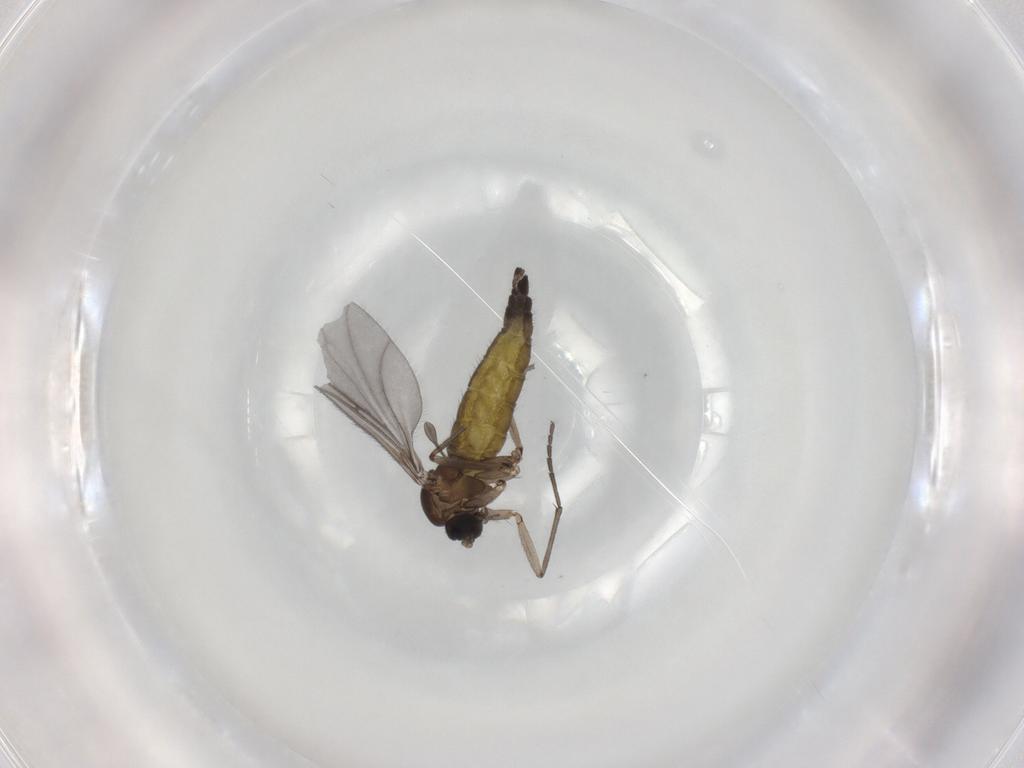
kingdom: Animalia
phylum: Arthropoda
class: Insecta
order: Diptera
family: Sciaridae
